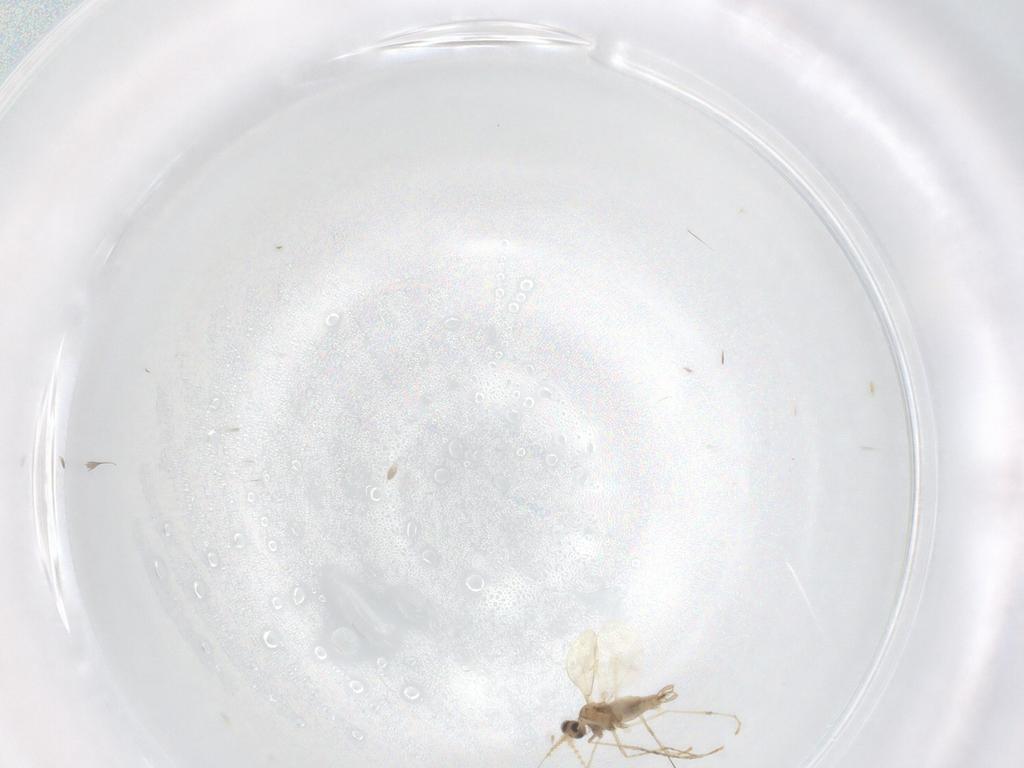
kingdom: Animalia
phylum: Arthropoda
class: Insecta
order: Diptera
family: Cecidomyiidae
